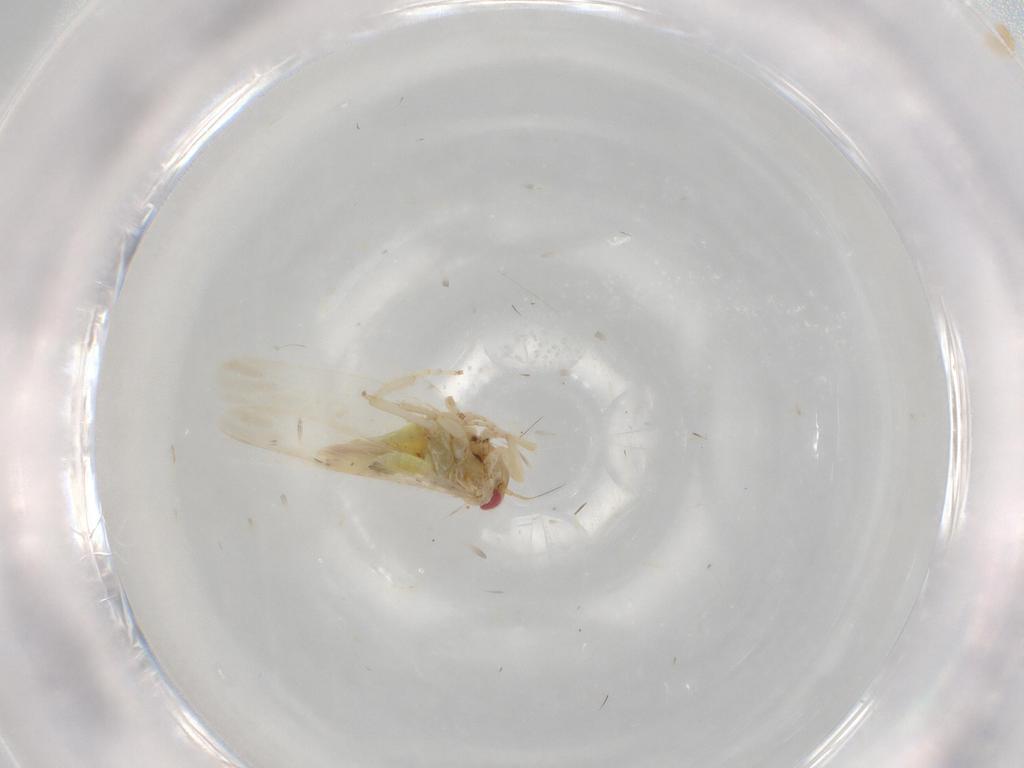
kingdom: Animalia
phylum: Arthropoda
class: Insecta
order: Hemiptera
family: Cicadellidae
